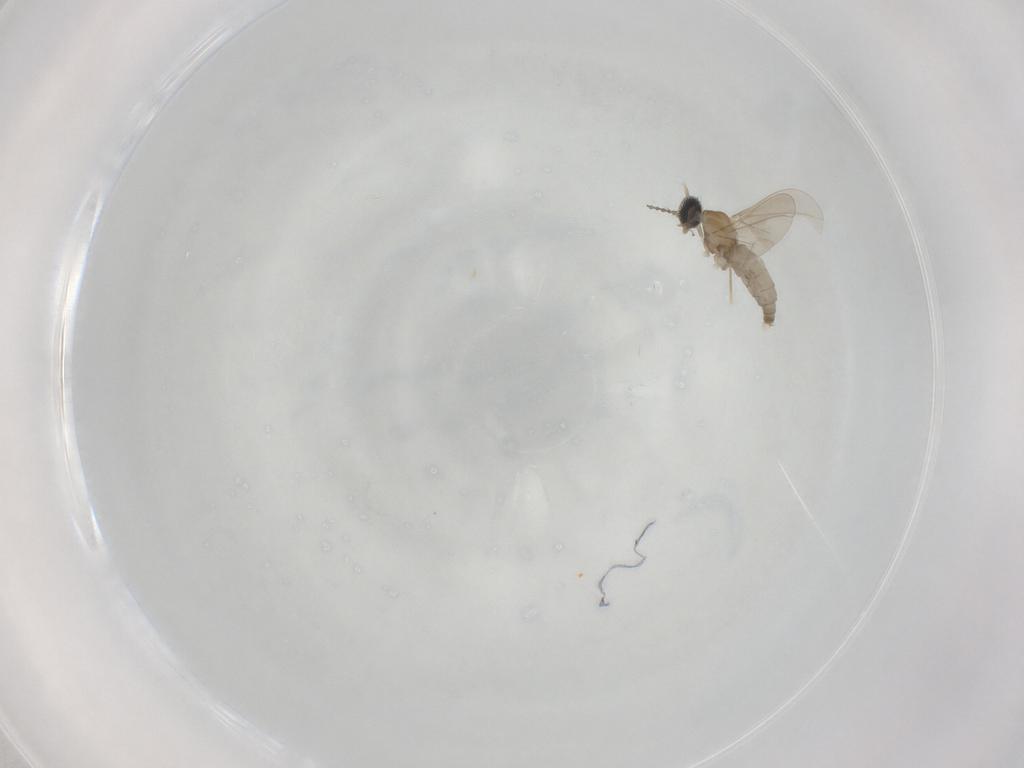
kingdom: Animalia
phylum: Arthropoda
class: Insecta
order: Diptera
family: Cecidomyiidae
